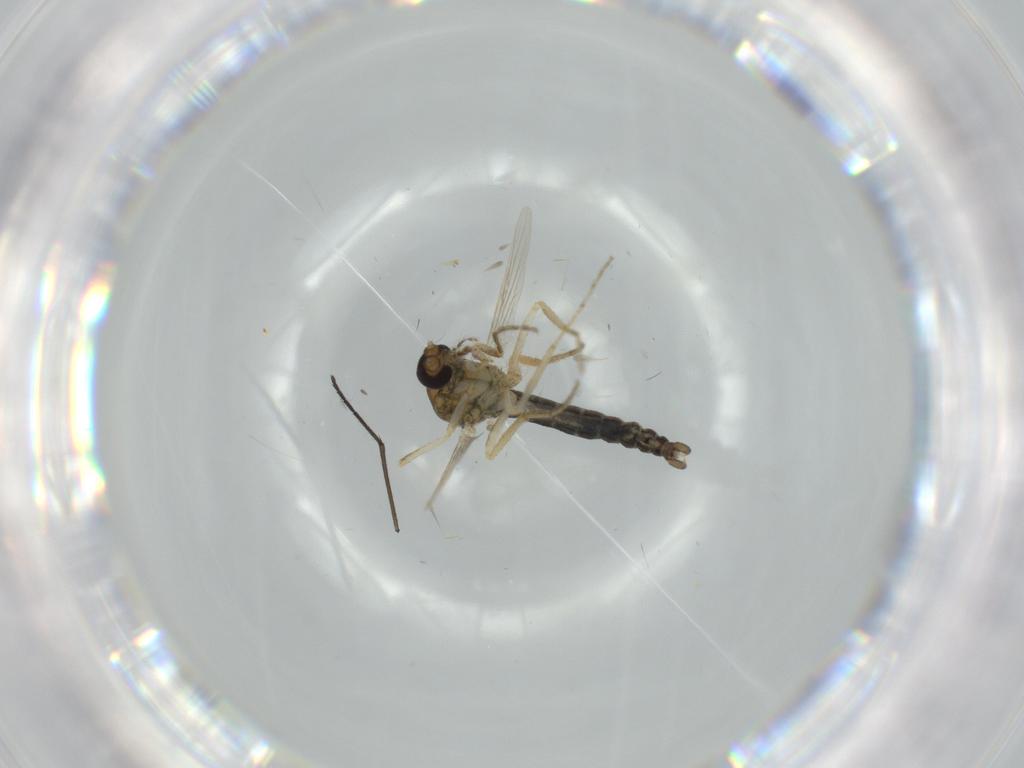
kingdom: Animalia
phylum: Arthropoda
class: Insecta
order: Diptera
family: Ceratopogonidae
